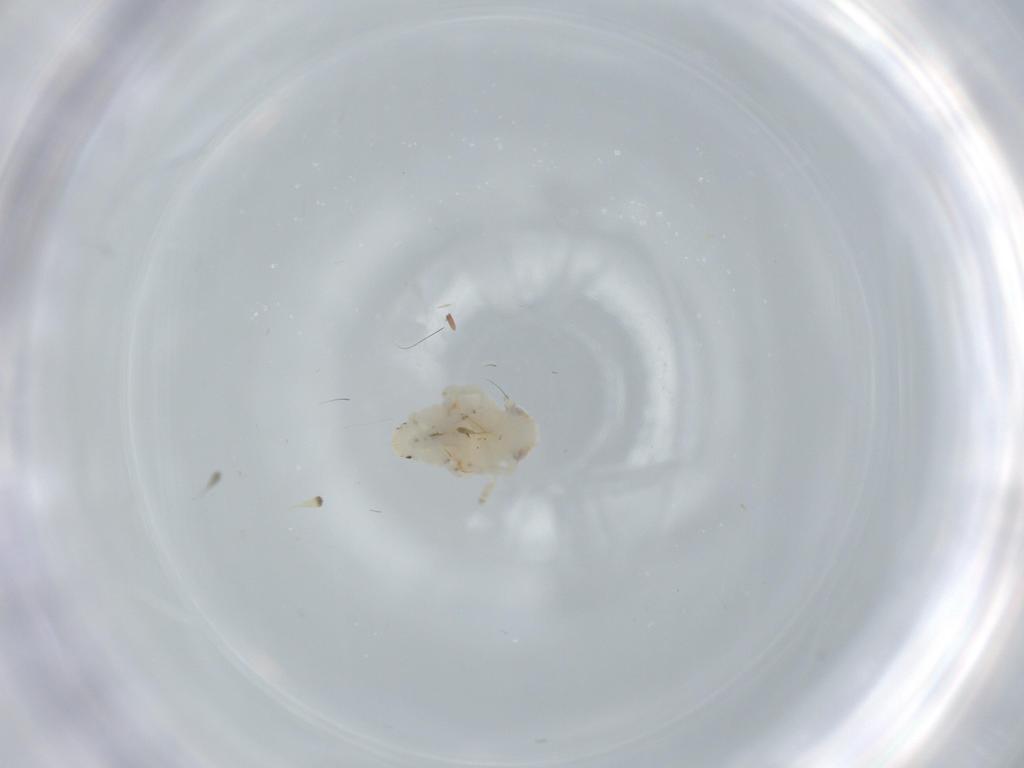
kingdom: Animalia
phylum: Arthropoda
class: Insecta
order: Hemiptera
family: Nogodinidae
